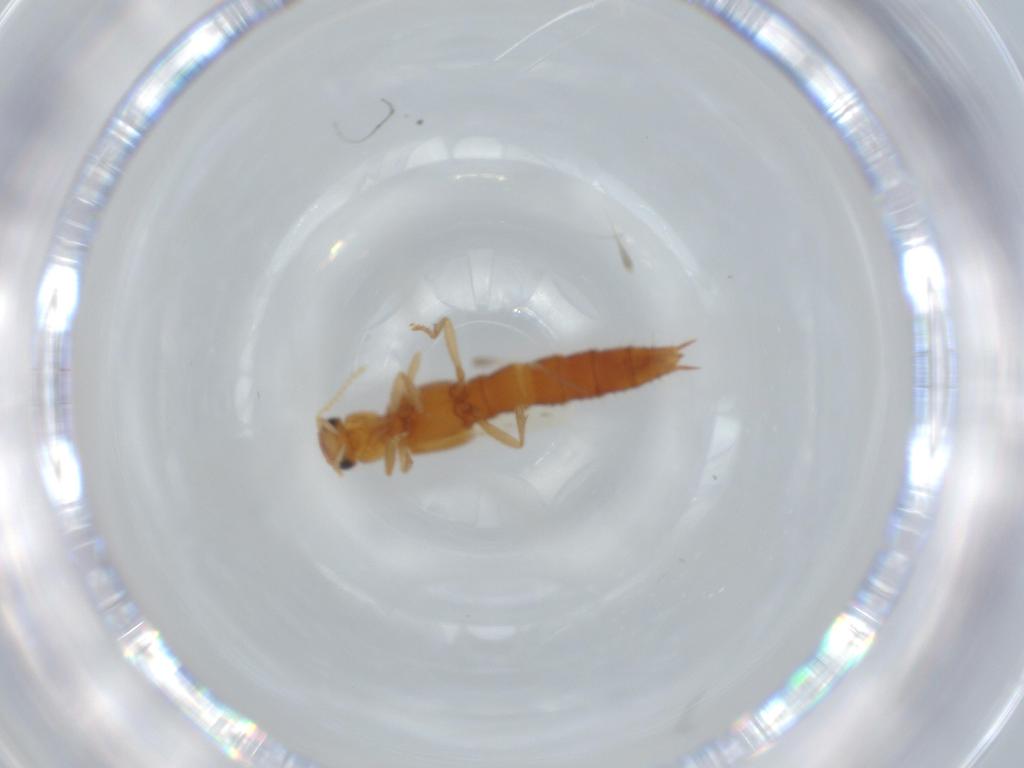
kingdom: Animalia
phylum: Arthropoda
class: Insecta
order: Coleoptera
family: Staphylinidae
